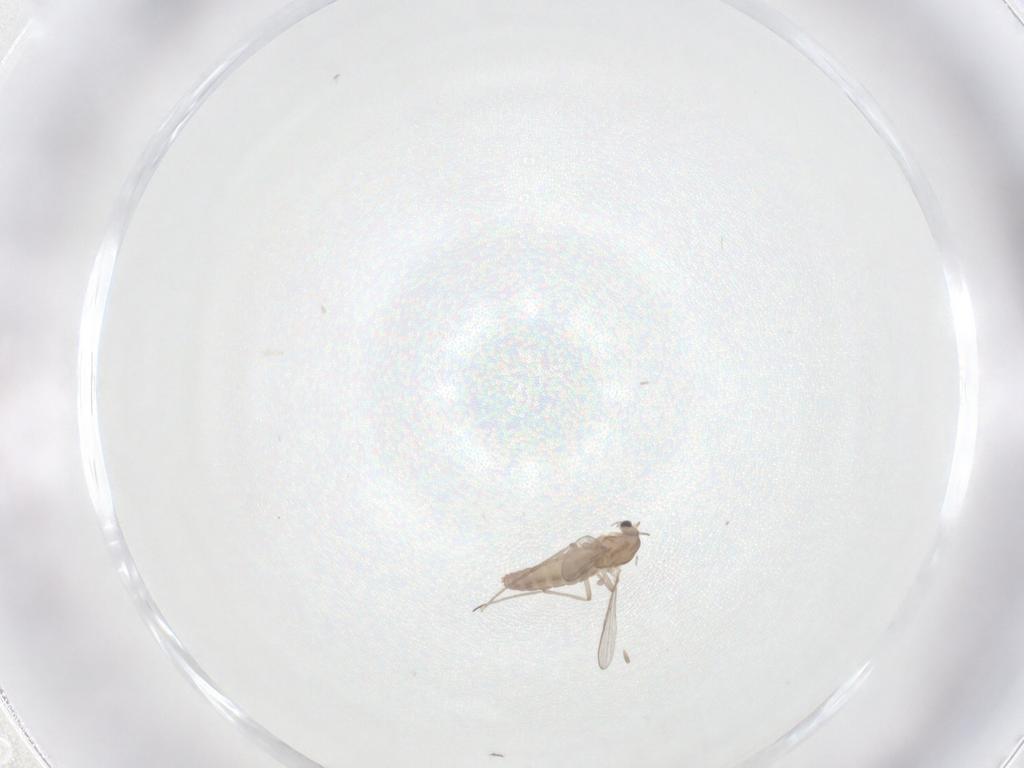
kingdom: Animalia
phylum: Arthropoda
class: Insecta
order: Diptera
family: Chironomidae
